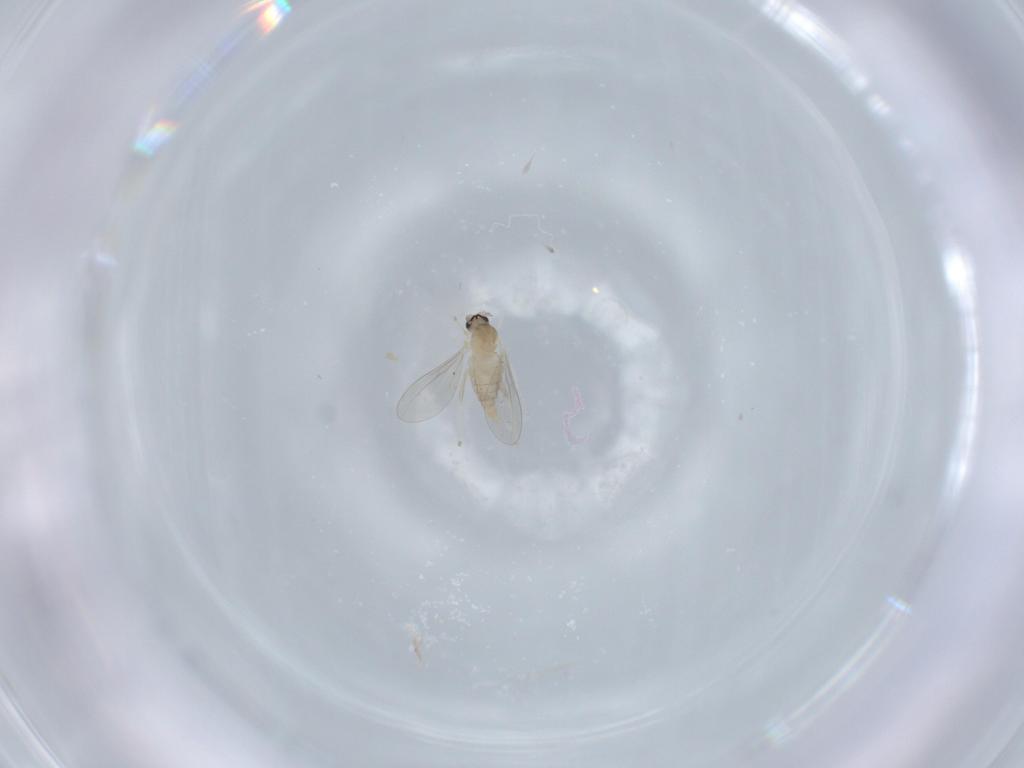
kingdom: Animalia
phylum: Arthropoda
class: Insecta
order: Diptera
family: Cecidomyiidae
